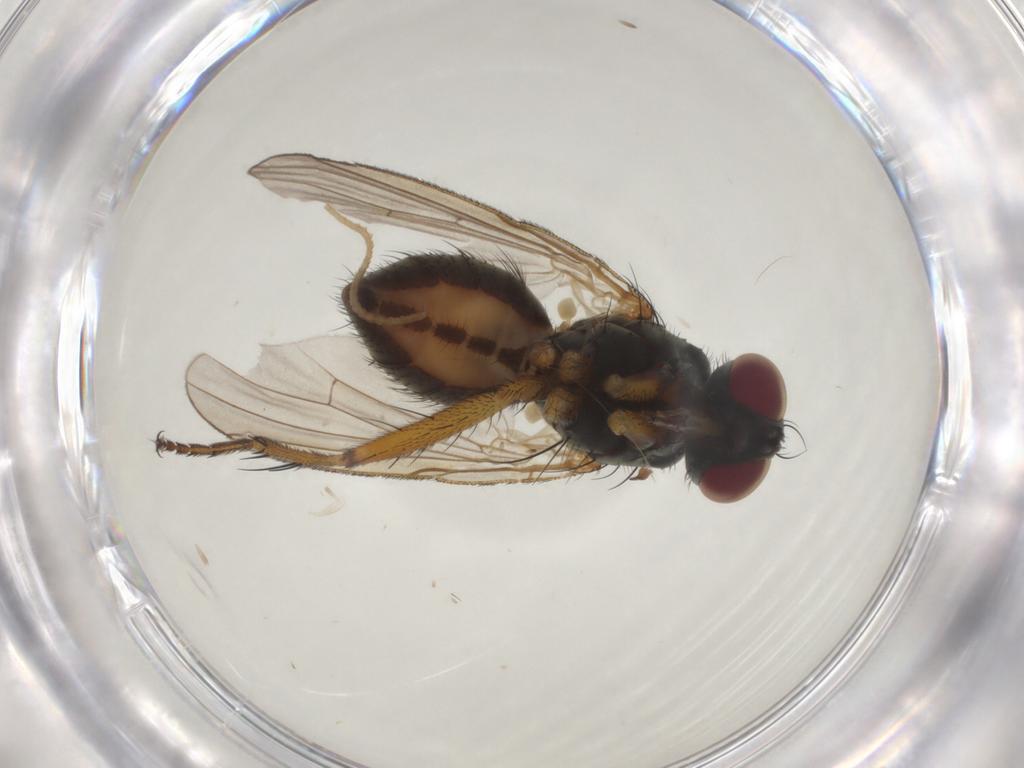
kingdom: Animalia
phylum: Arthropoda
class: Insecta
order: Diptera
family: Muscidae
